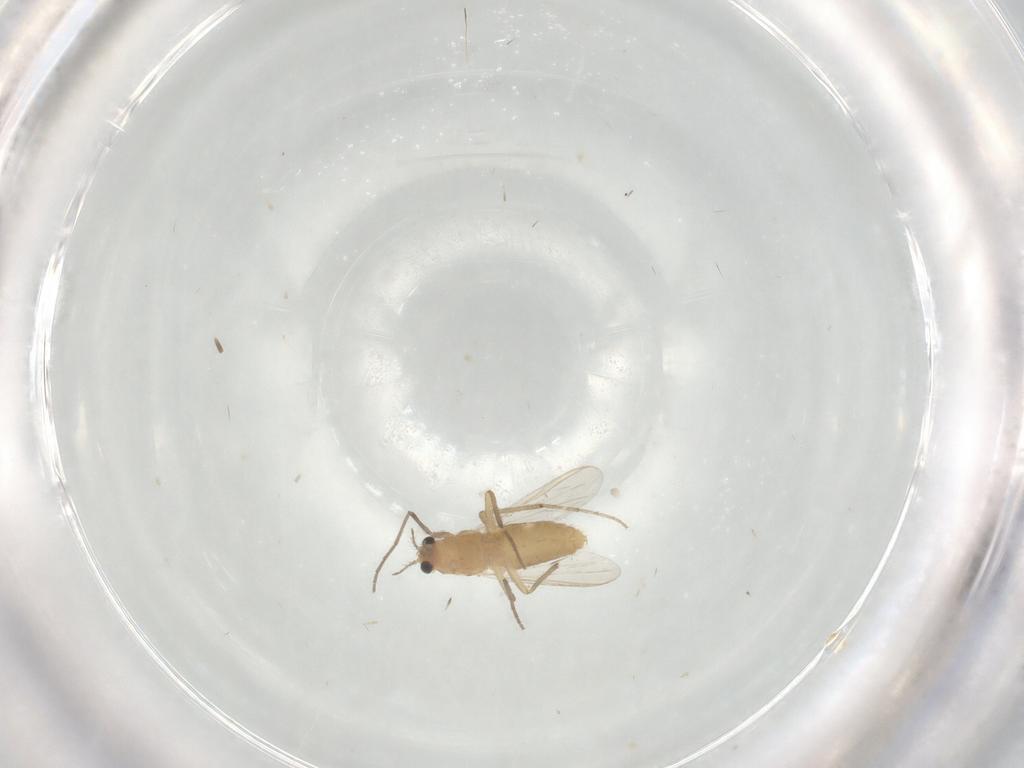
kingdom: Animalia
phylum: Arthropoda
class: Insecta
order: Diptera
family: Chironomidae
